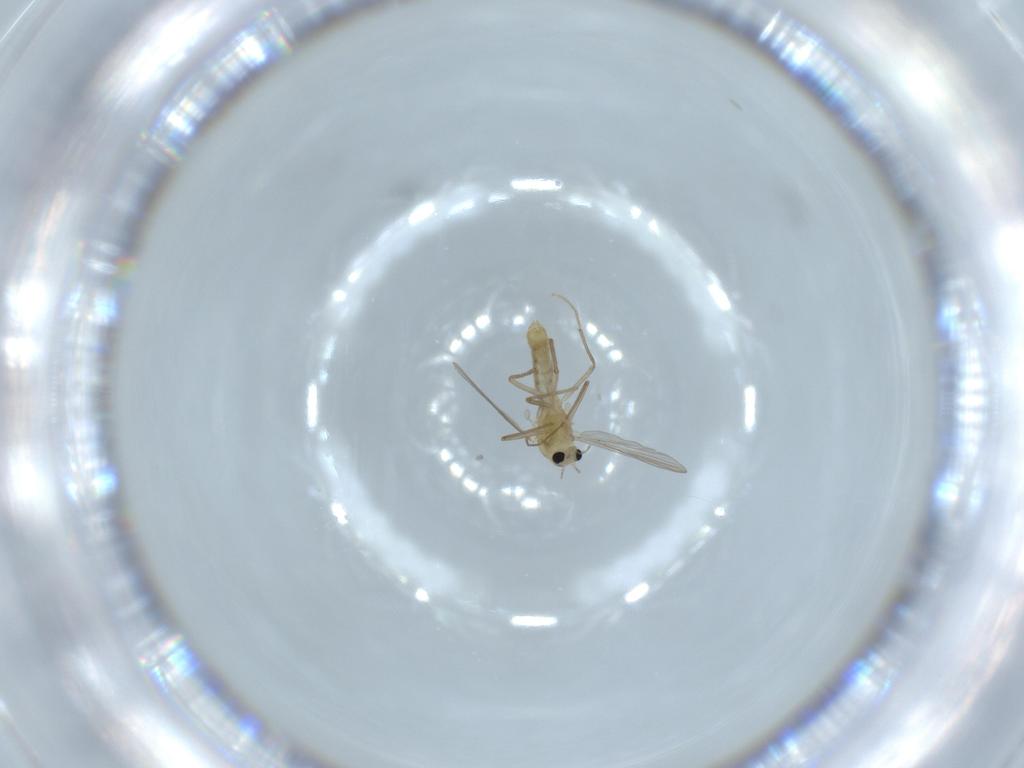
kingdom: Animalia
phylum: Arthropoda
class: Insecta
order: Diptera
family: Chironomidae
